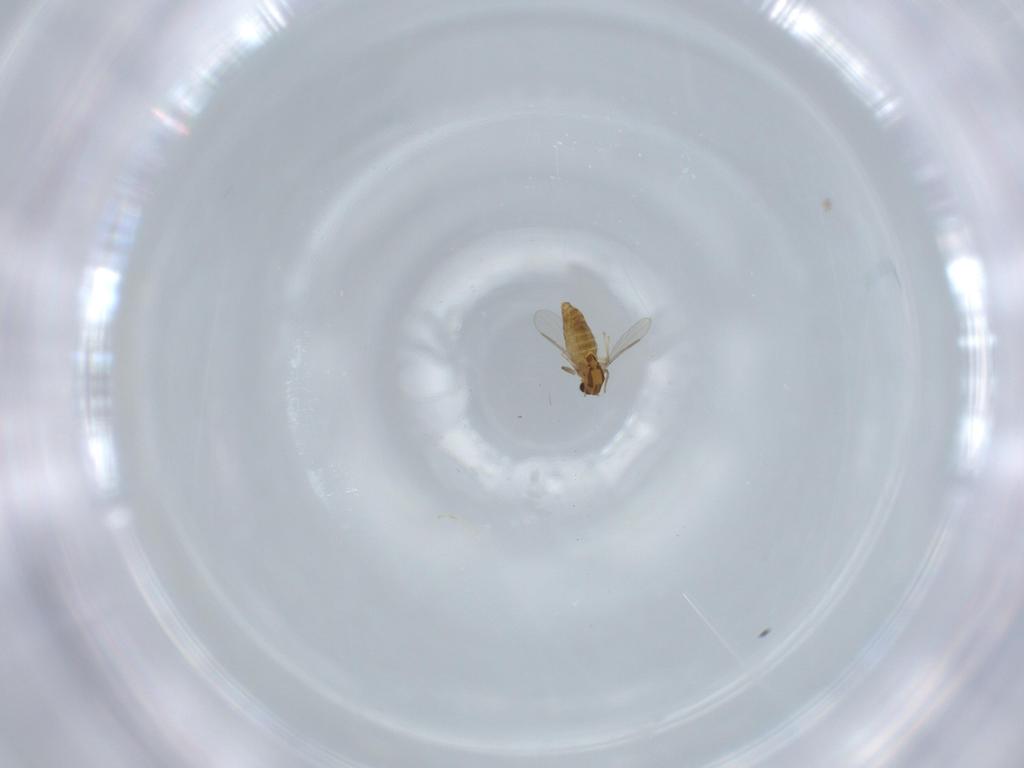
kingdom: Animalia
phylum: Arthropoda
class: Insecta
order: Diptera
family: Chironomidae
